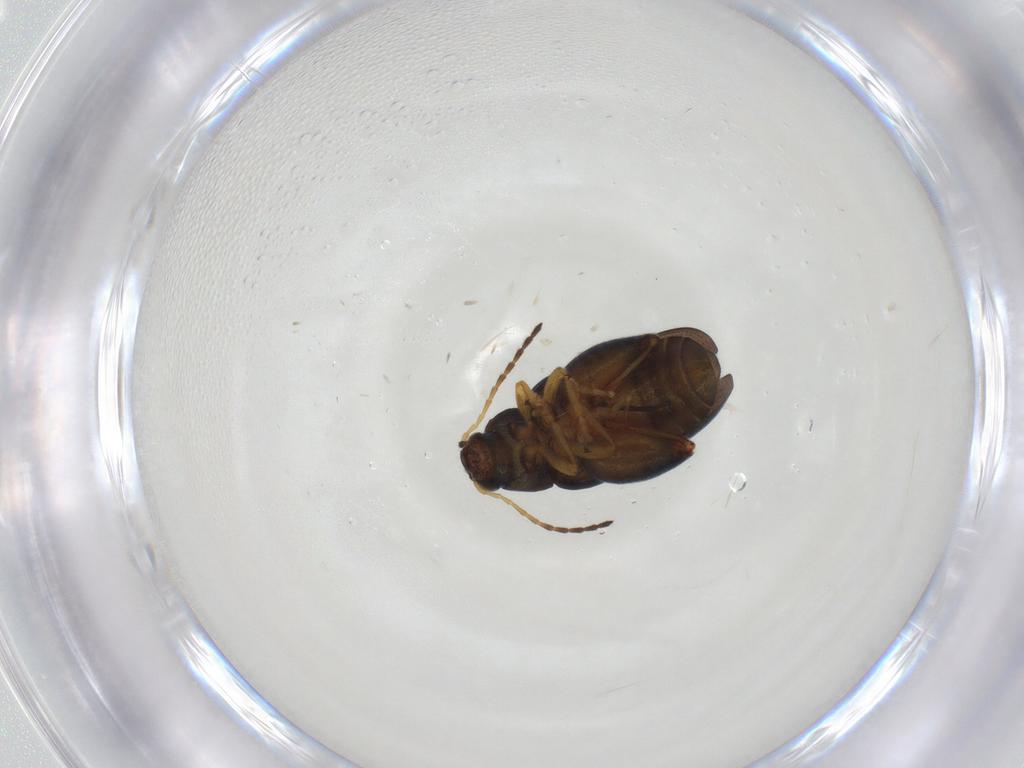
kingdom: Animalia
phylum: Arthropoda
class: Insecta
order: Coleoptera
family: Chrysomelidae
